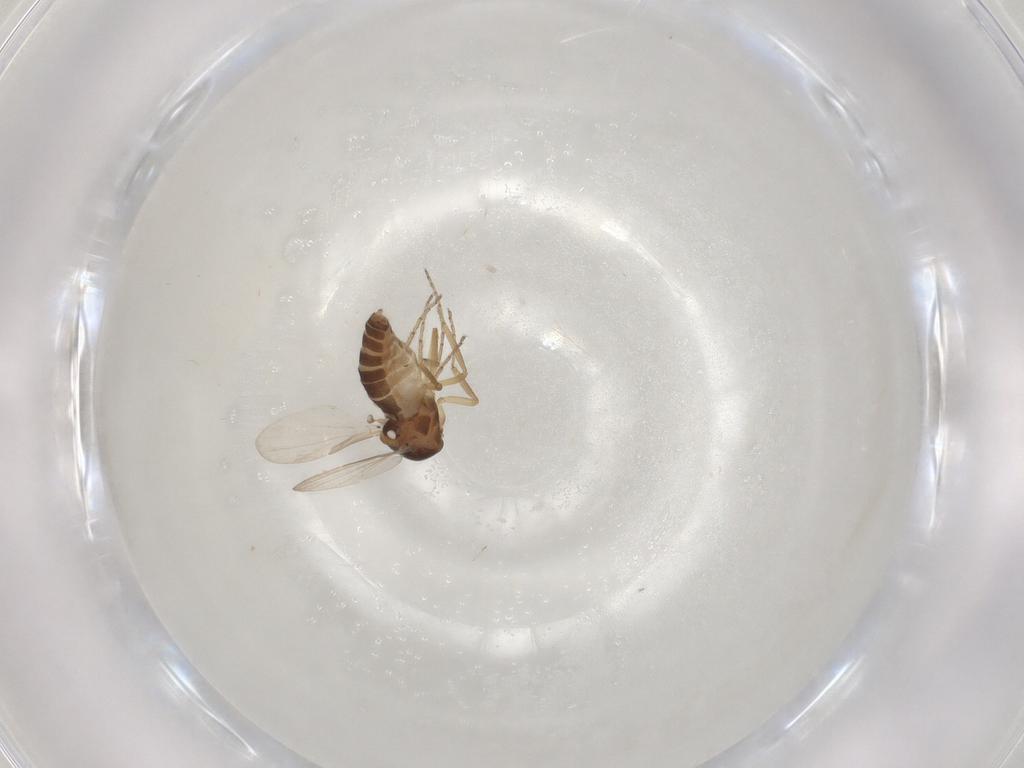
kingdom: Animalia
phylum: Arthropoda
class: Insecta
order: Diptera
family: Ceratopogonidae
